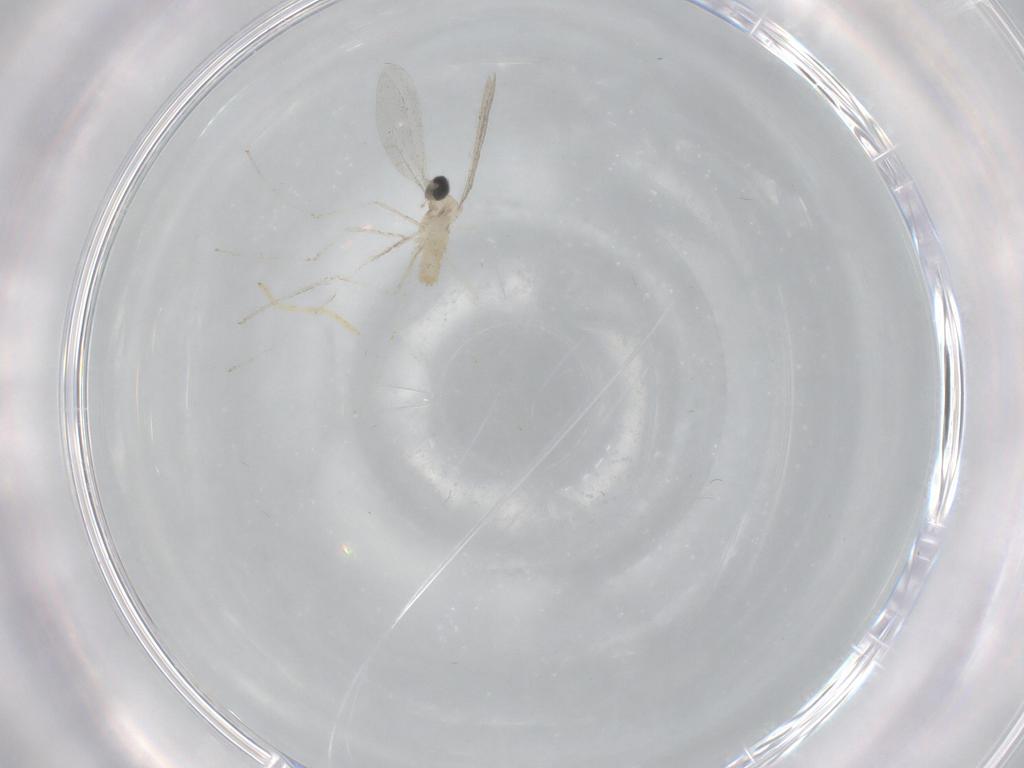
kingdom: Animalia
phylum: Arthropoda
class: Insecta
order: Diptera
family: Cecidomyiidae
